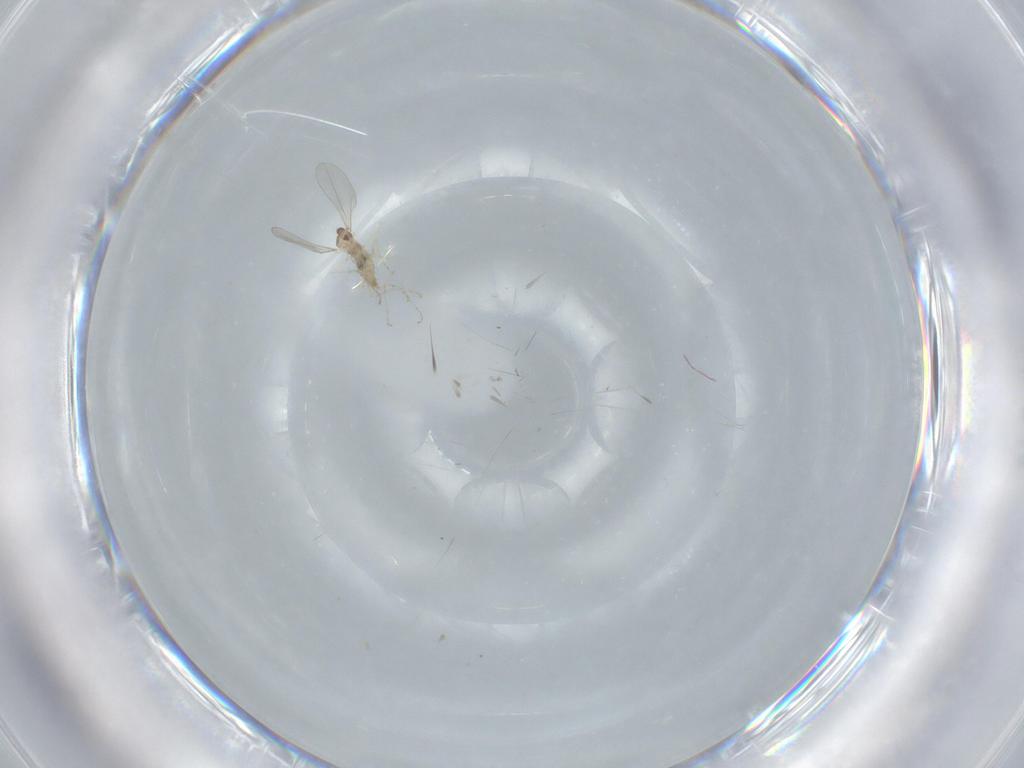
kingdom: Animalia
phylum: Arthropoda
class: Insecta
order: Diptera
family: Cecidomyiidae
